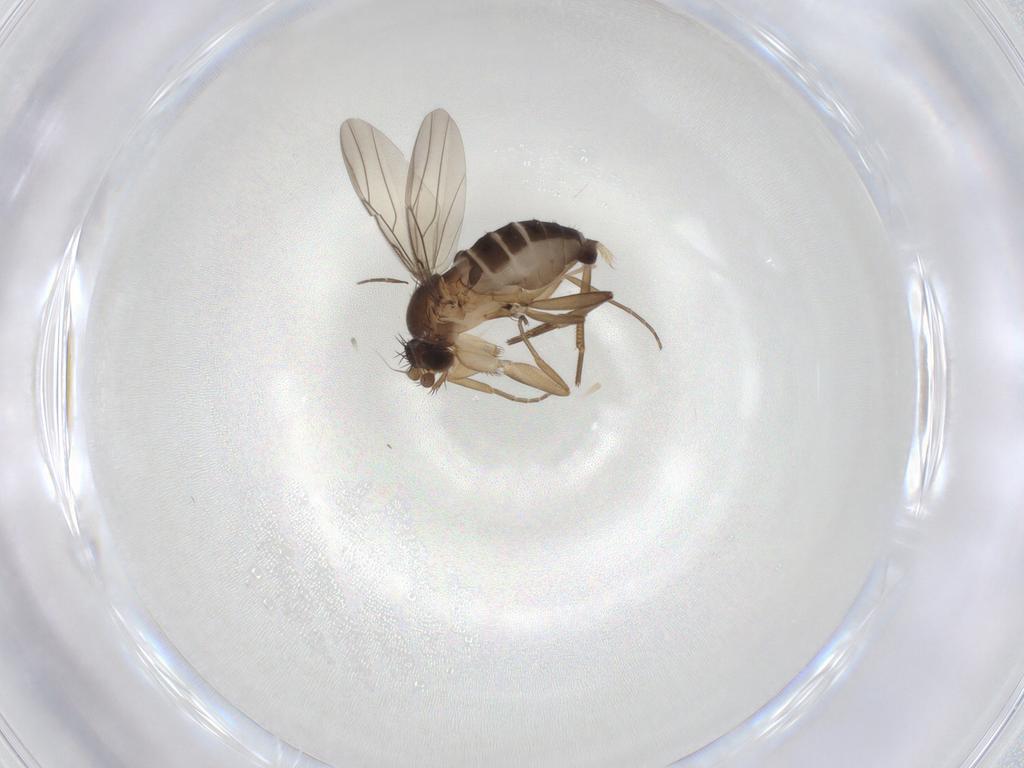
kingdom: Animalia
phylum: Arthropoda
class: Insecta
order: Diptera
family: Phoridae
